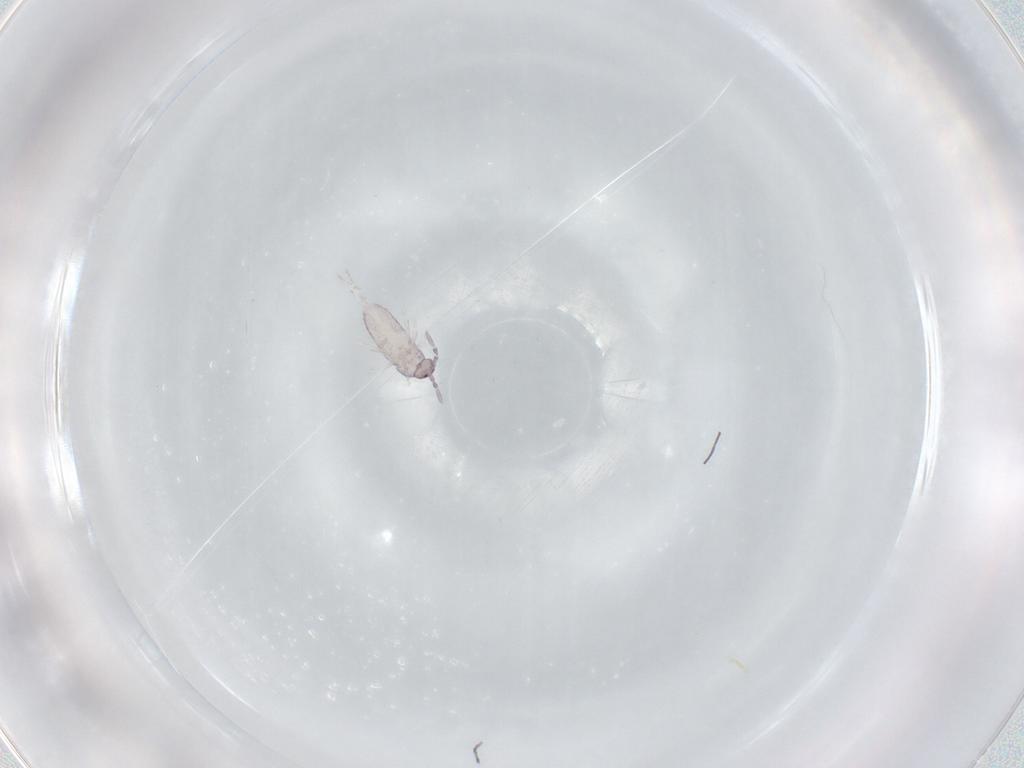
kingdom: Animalia
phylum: Arthropoda
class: Collembola
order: Entomobryomorpha
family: Entomobryidae
